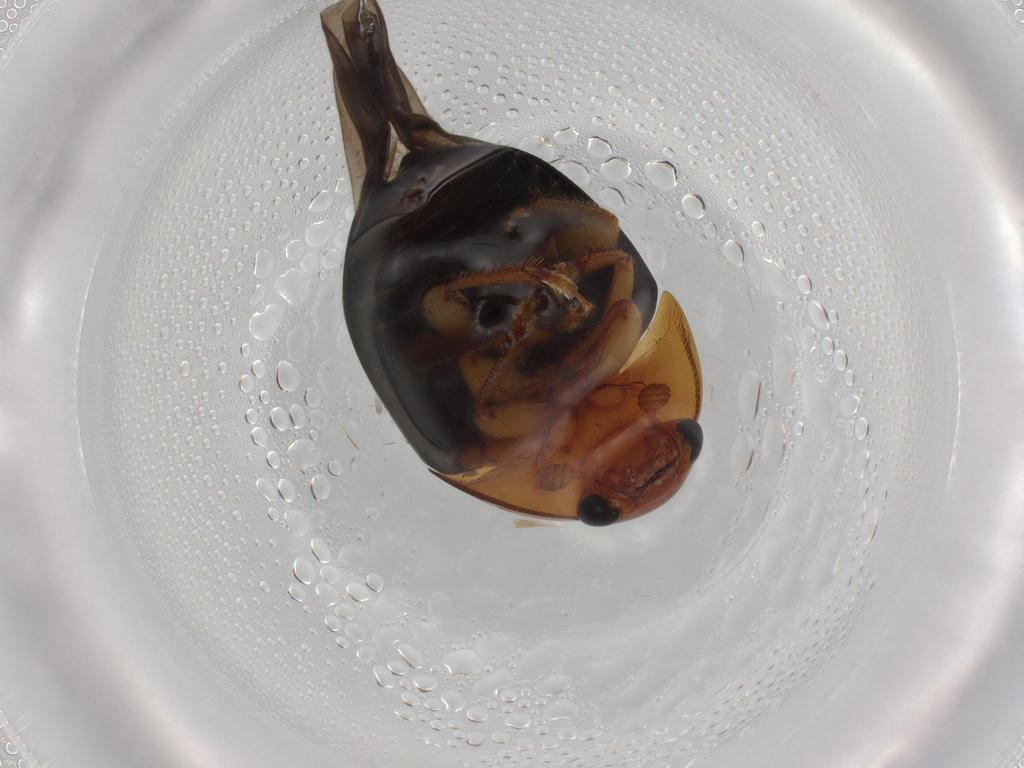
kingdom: Animalia
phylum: Arthropoda
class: Insecta
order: Coleoptera
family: Nitidulidae
